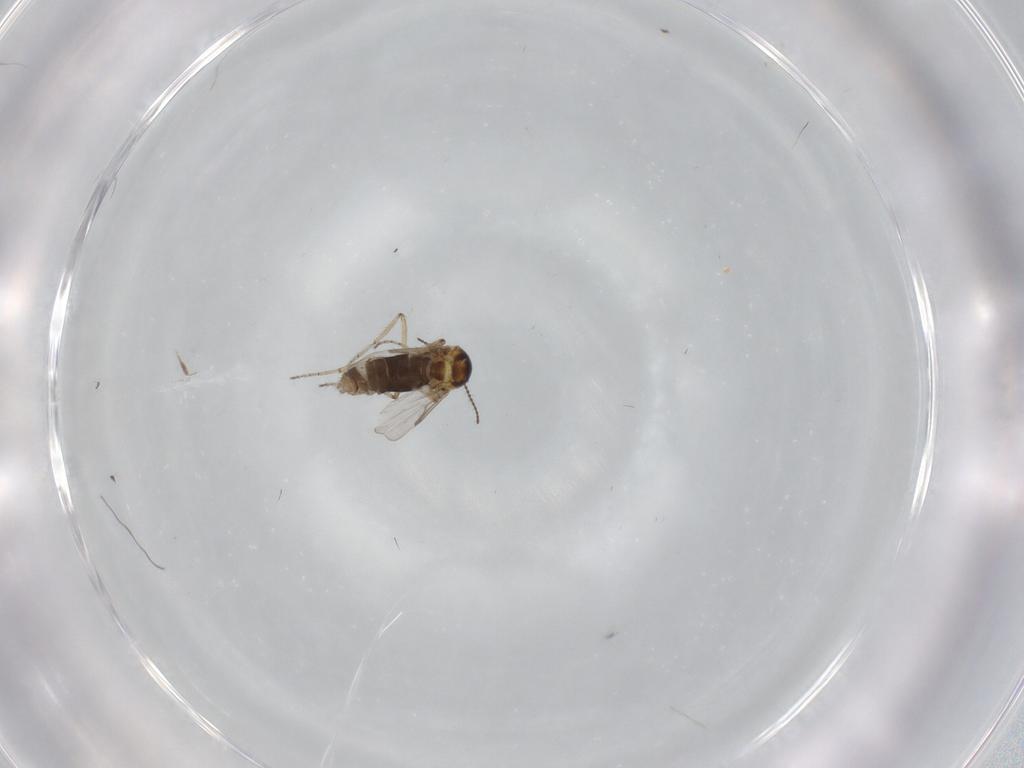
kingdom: Animalia
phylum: Arthropoda
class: Insecta
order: Diptera
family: Ceratopogonidae
